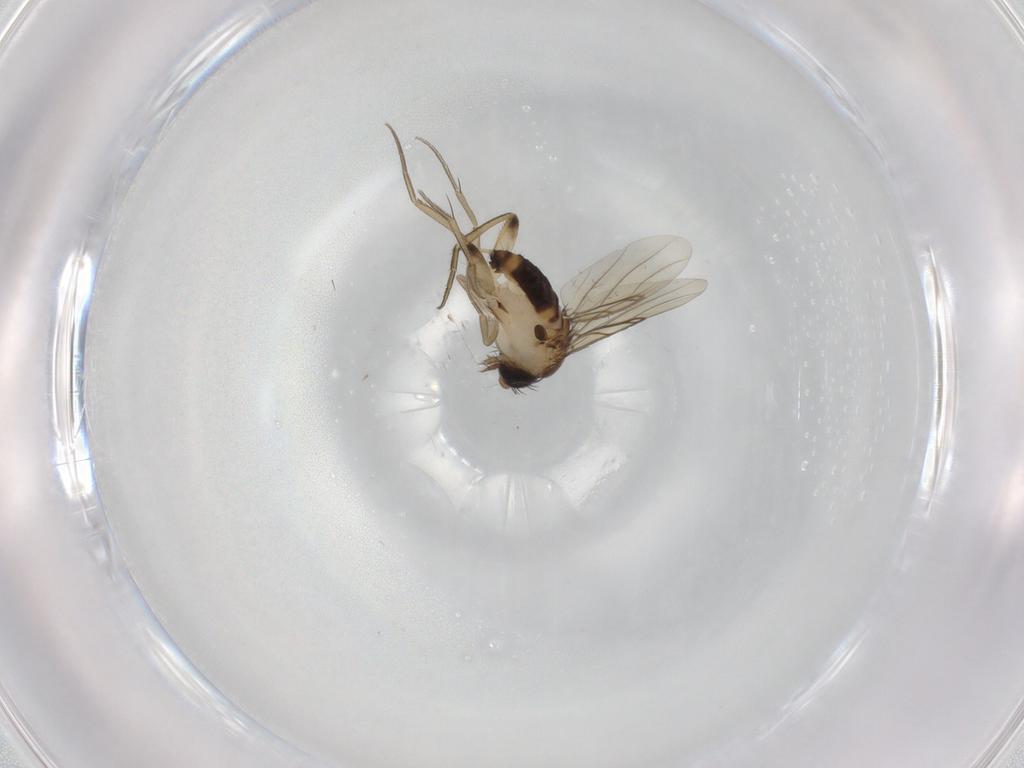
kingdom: Animalia
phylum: Arthropoda
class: Insecta
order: Diptera
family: Phoridae
